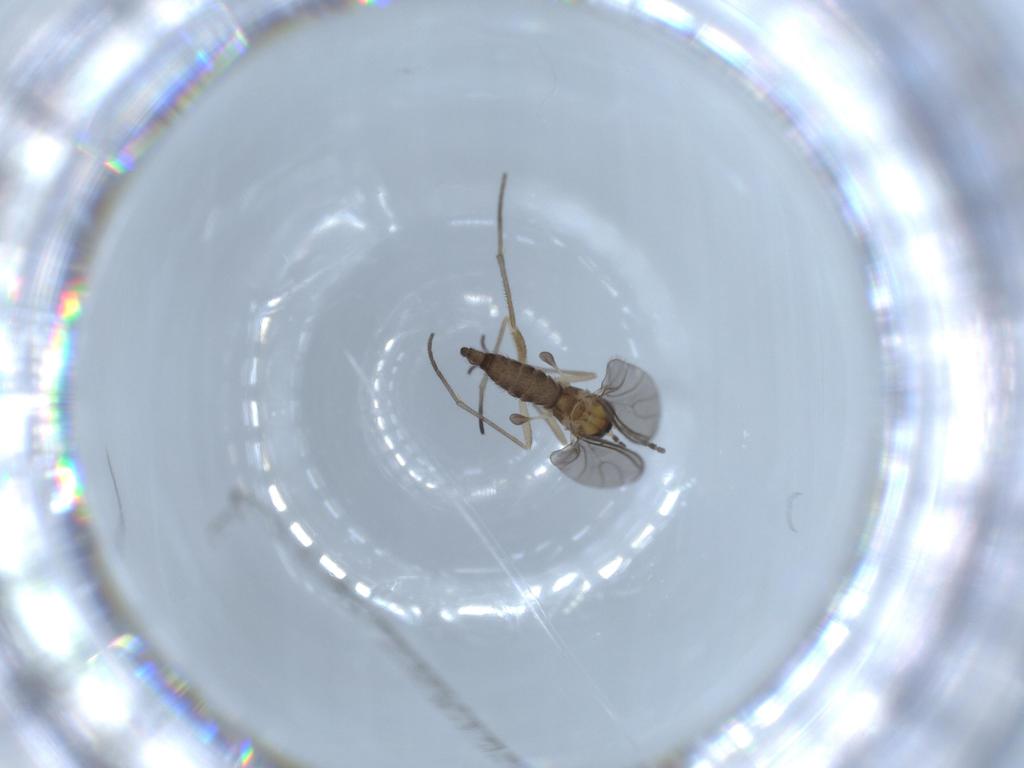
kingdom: Animalia
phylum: Arthropoda
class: Insecta
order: Diptera
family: Sciaridae
